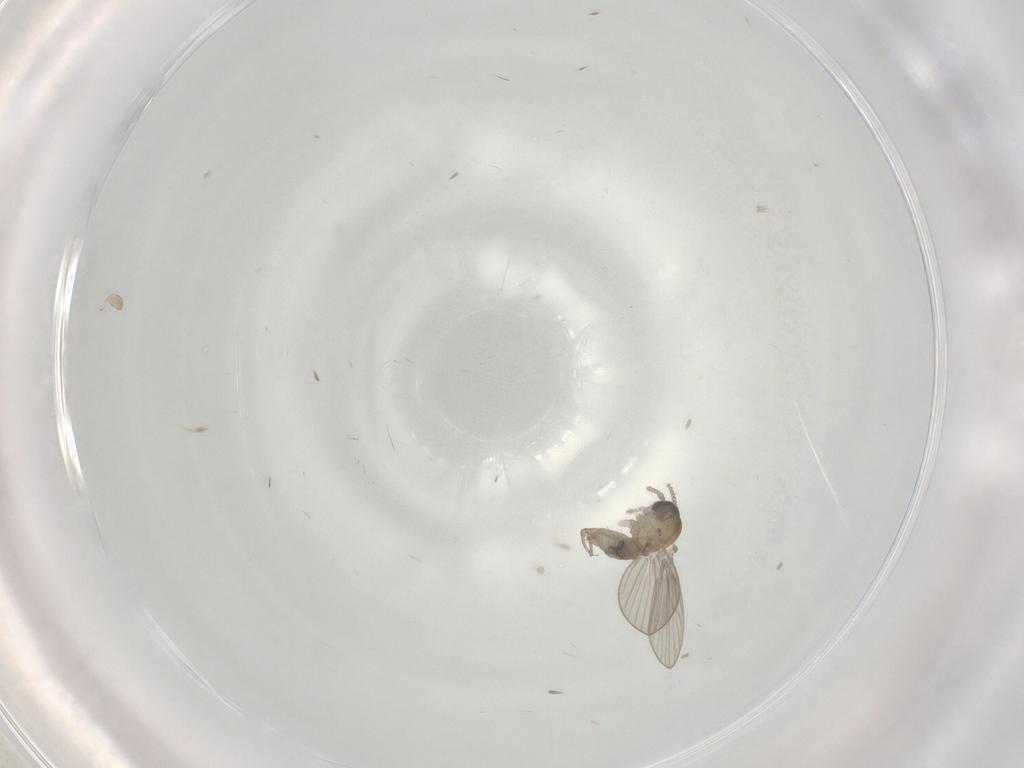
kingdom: Animalia
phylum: Arthropoda
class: Insecta
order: Diptera
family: Psychodidae
